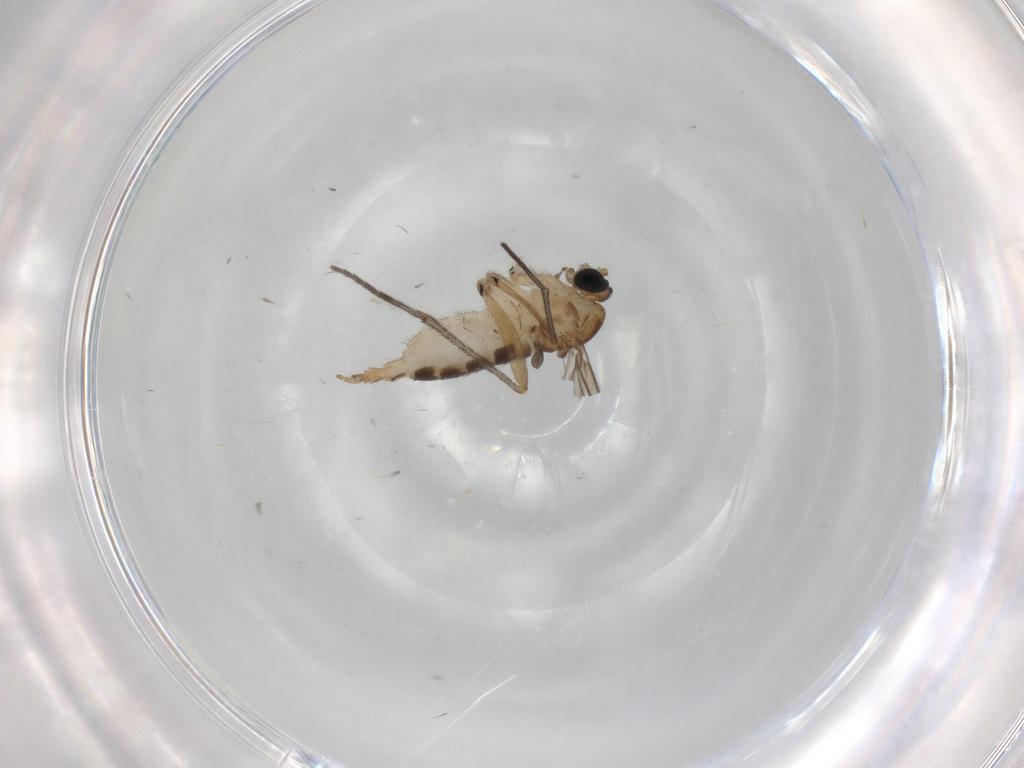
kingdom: Animalia
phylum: Arthropoda
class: Insecta
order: Diptera
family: Sciaridae
